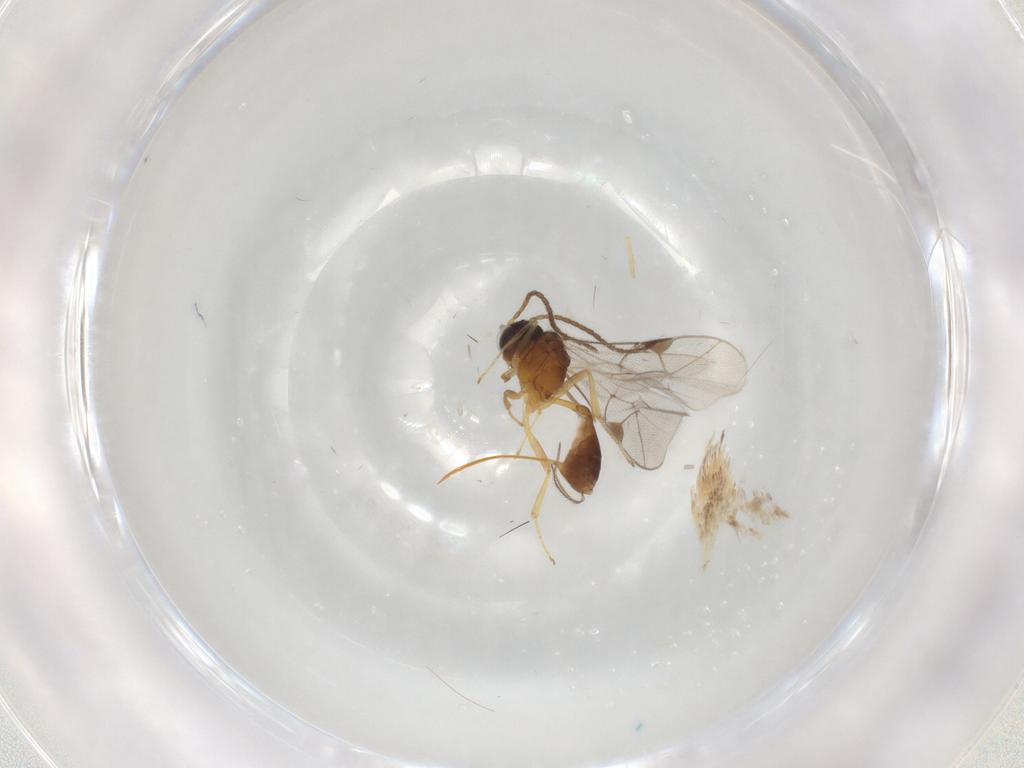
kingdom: Animalia
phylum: Arthropoda
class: Insecta
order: Hymenoptera
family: Ichneumonidae
